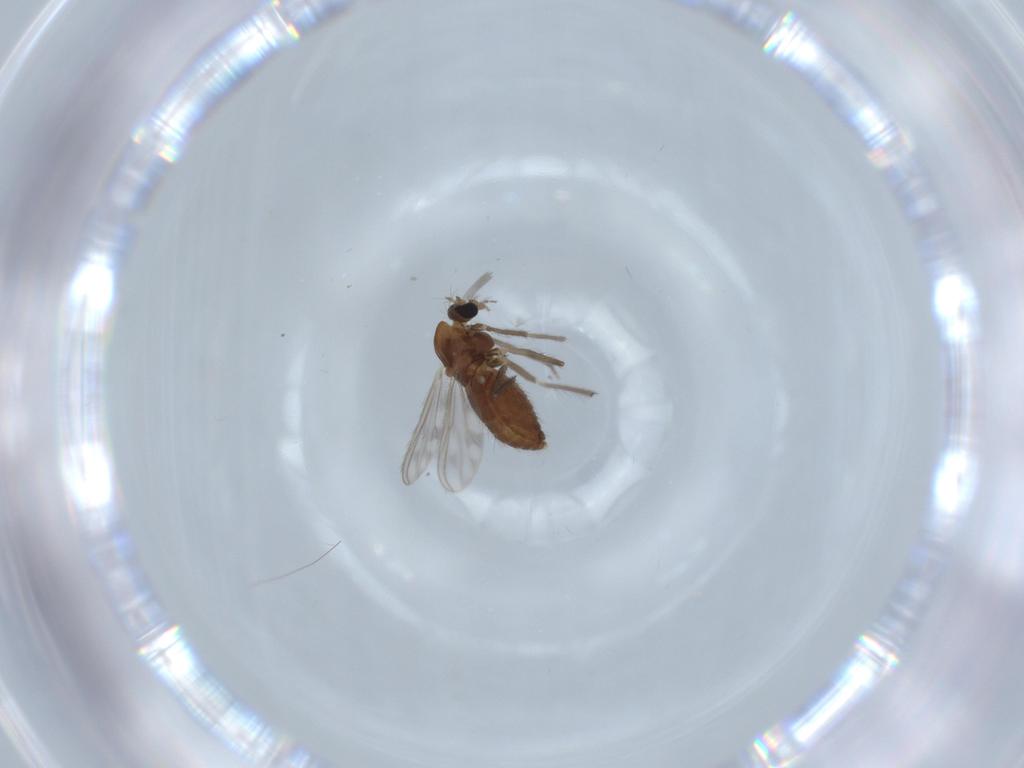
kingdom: Animalia
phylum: Arthropoda
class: Insecta
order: Diptera
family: Chironomidae
